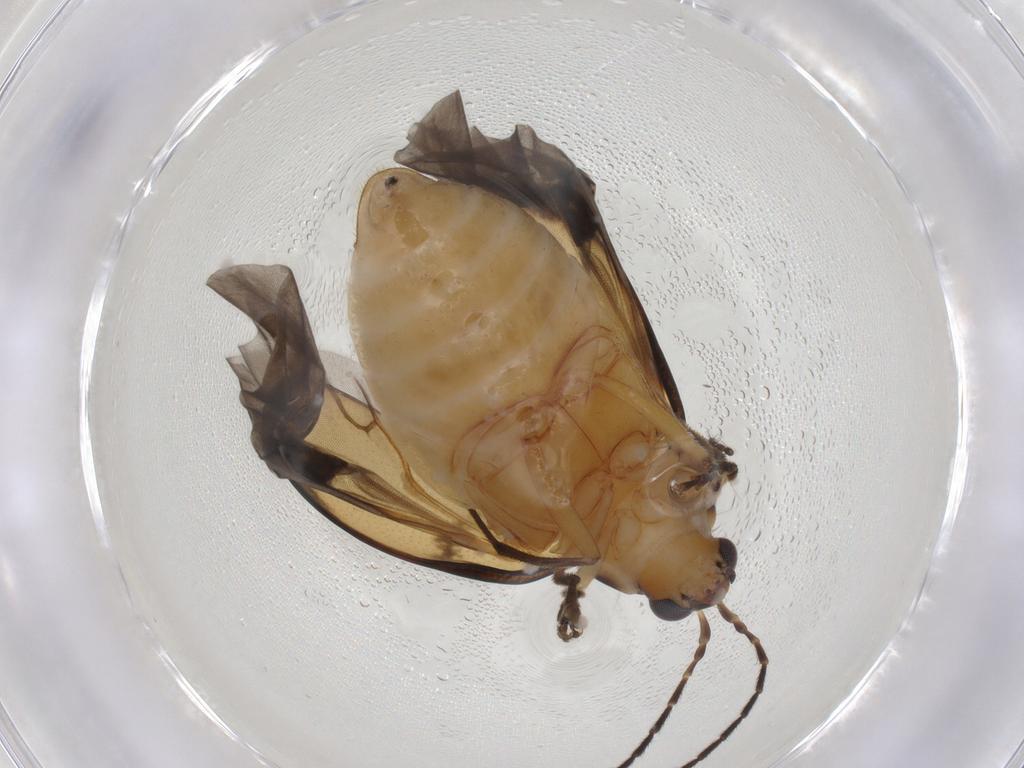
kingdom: Animalia
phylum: Arthropoda
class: Insecta
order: Coleoptera
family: Chrysomelidae
